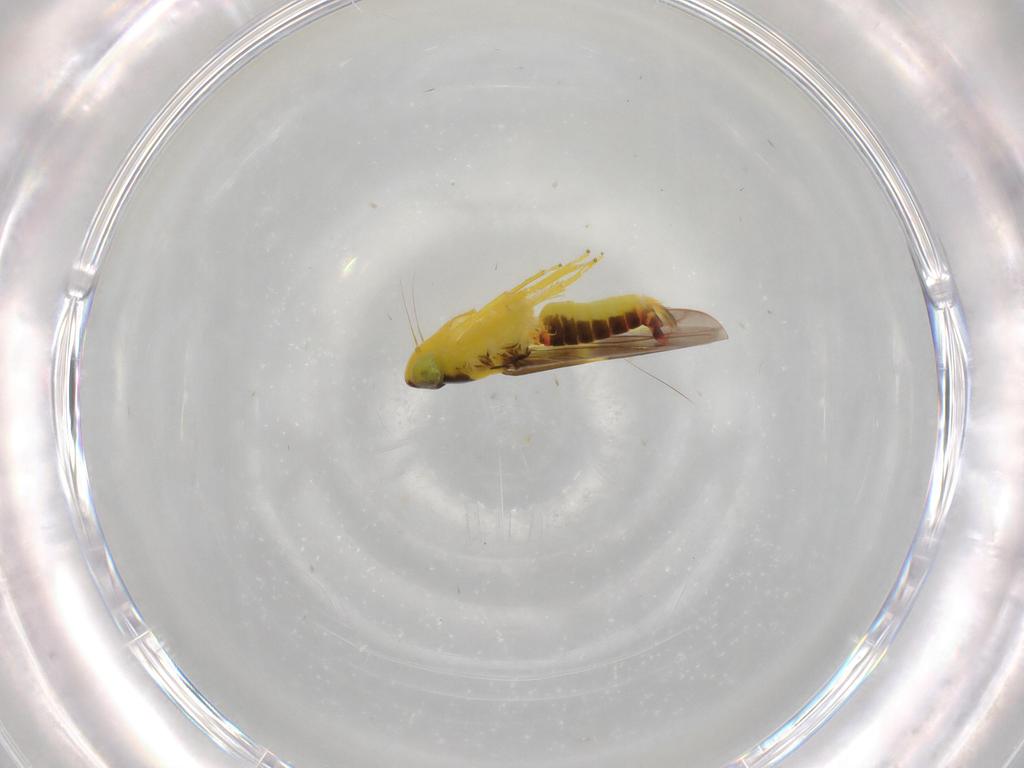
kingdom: Animalia
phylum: Arthropoda
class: Insecta
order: Hemiptera
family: Cicadellidae
